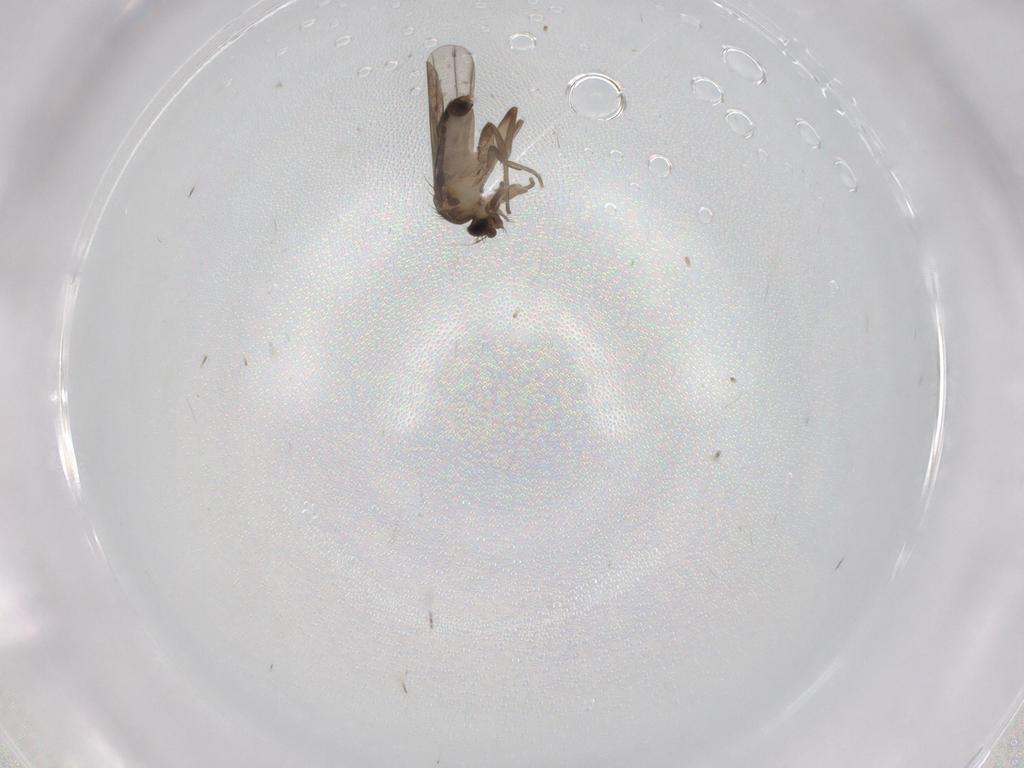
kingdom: Animalia
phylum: Arthropoda
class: Insecta
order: Diptera
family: Phoridae
